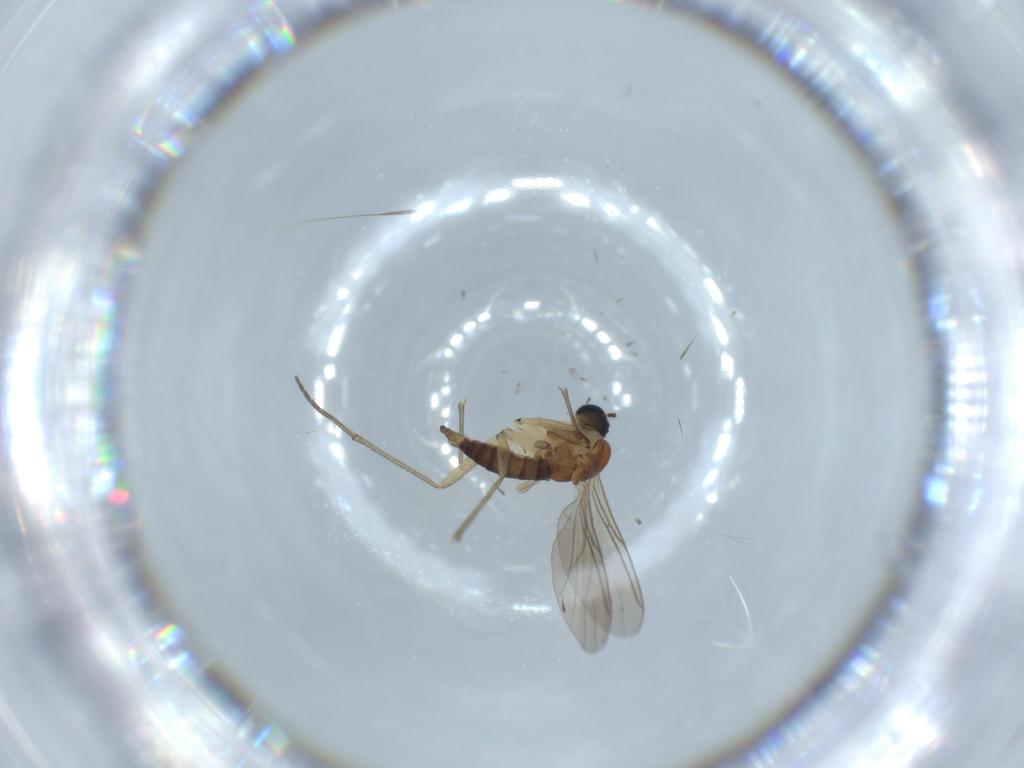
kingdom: Animalia
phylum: Arthropoda
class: Insecta
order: Diptera
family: Sciaridae
